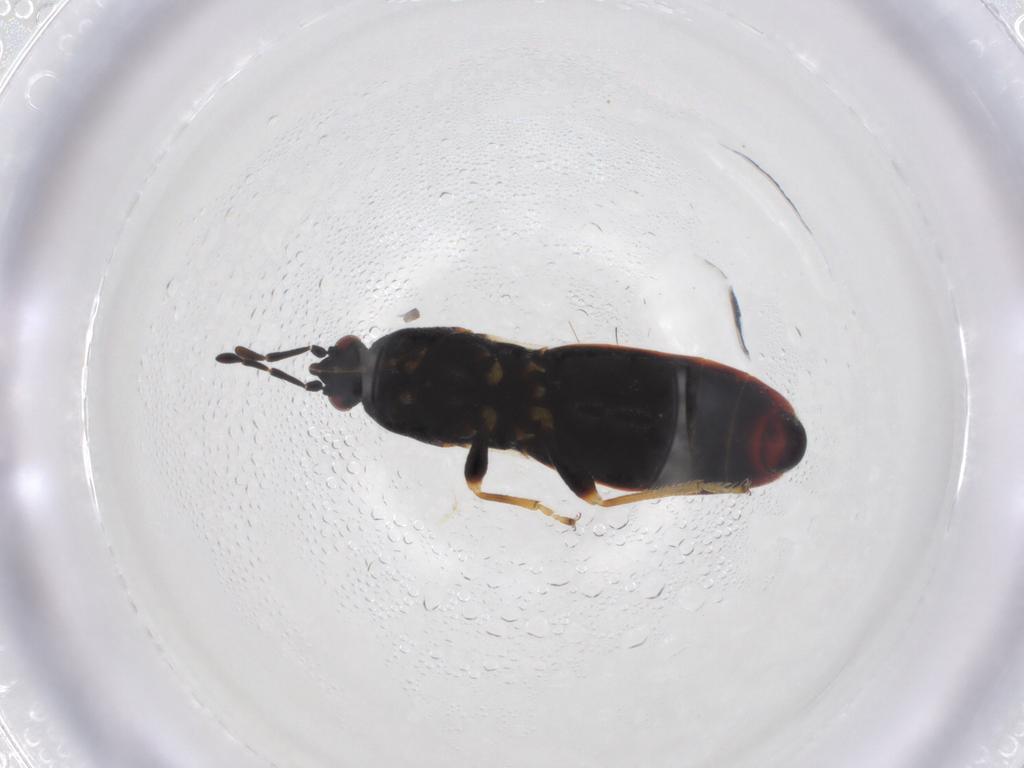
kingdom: Animalia
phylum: Arthropoda
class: Insecta
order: Hemiptera
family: Blissidae
